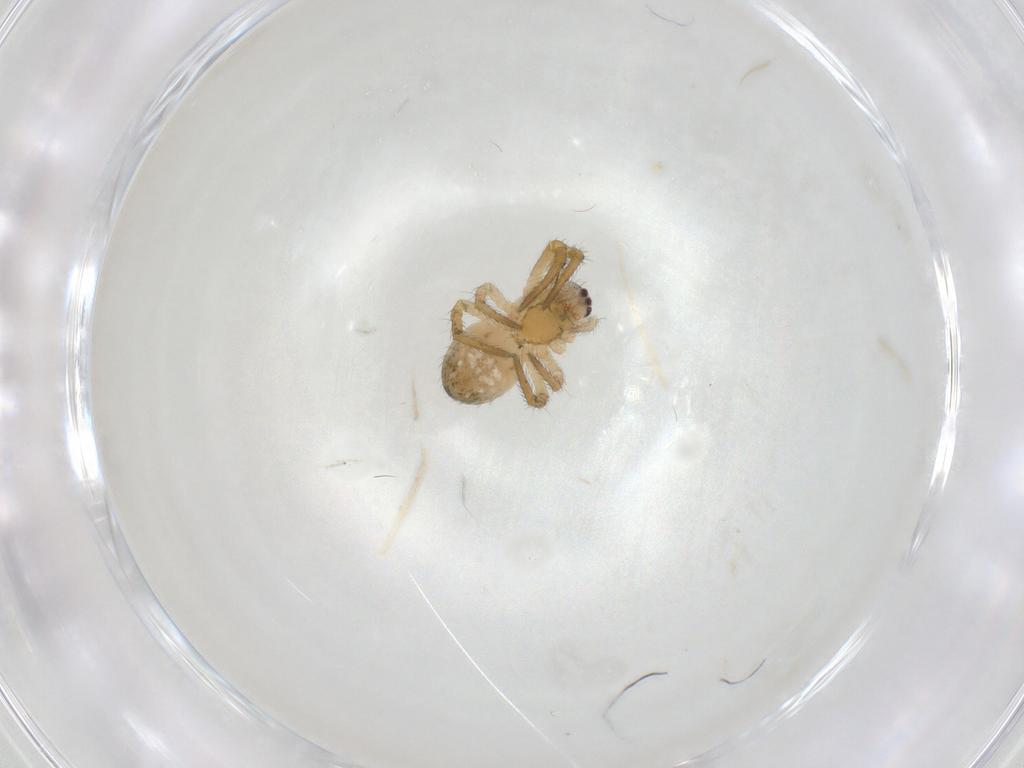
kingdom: Animalia
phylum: Arthropoda
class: Arachnida
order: Araneae
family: Araneidae
